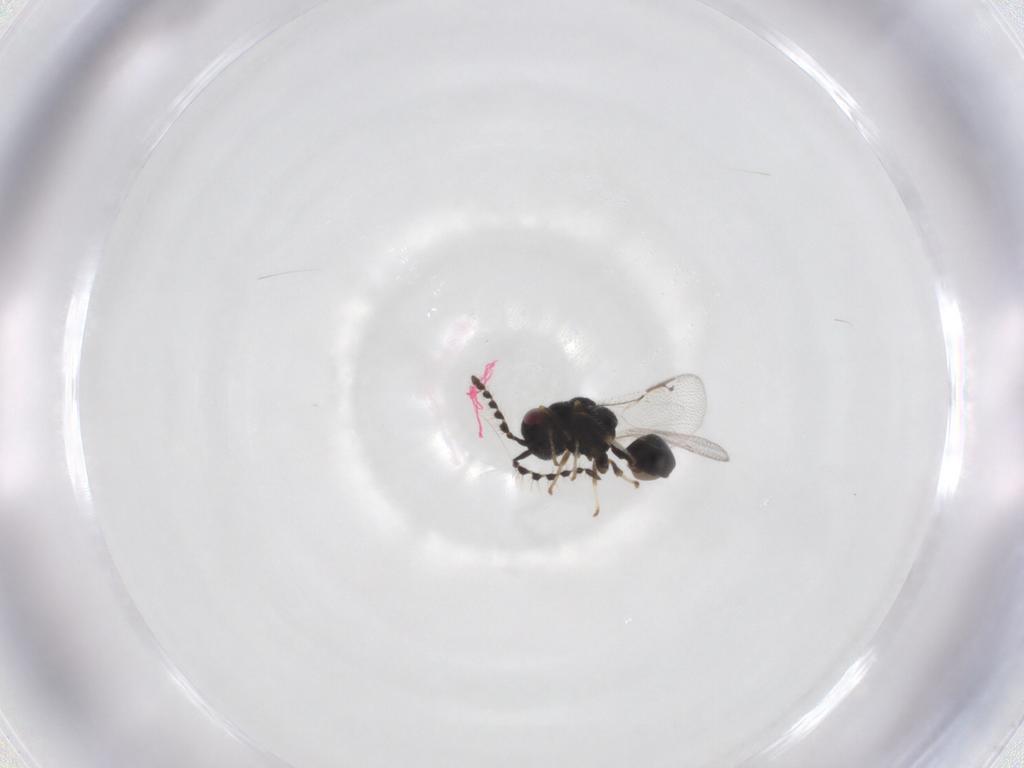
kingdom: Animalia
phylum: Arthropoda
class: Insecta
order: Hymenoptera
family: Eurytomidae
